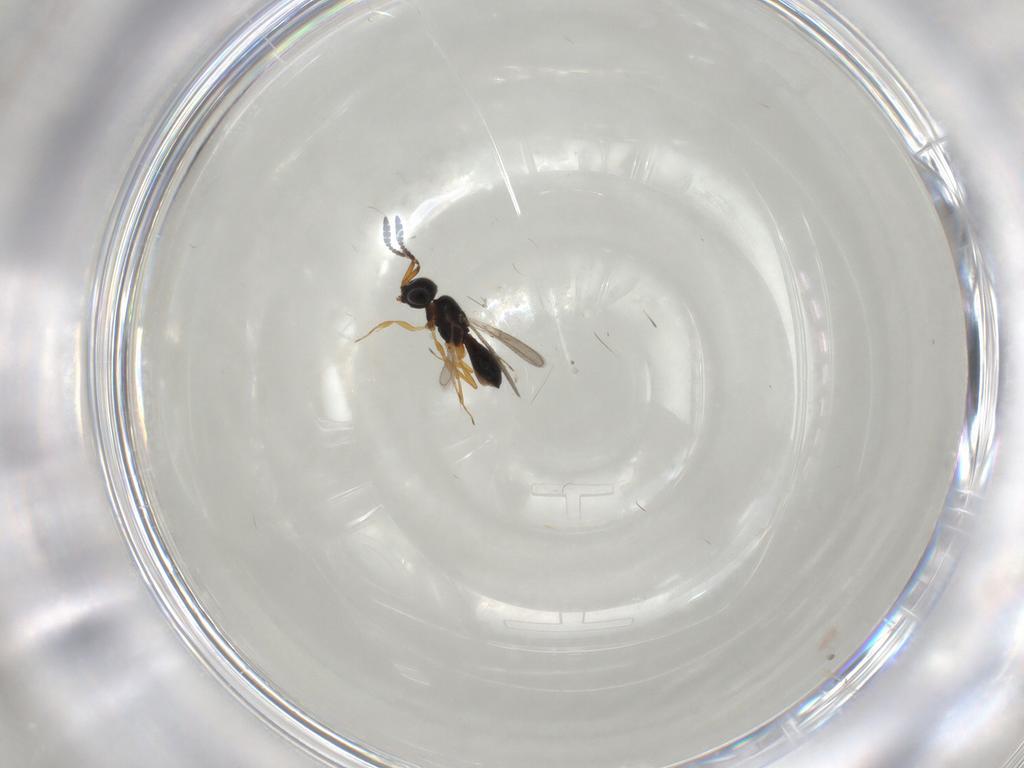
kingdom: Animalia
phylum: Arthropoda
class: Insecta
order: Hymenoptera
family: Scelionidae
